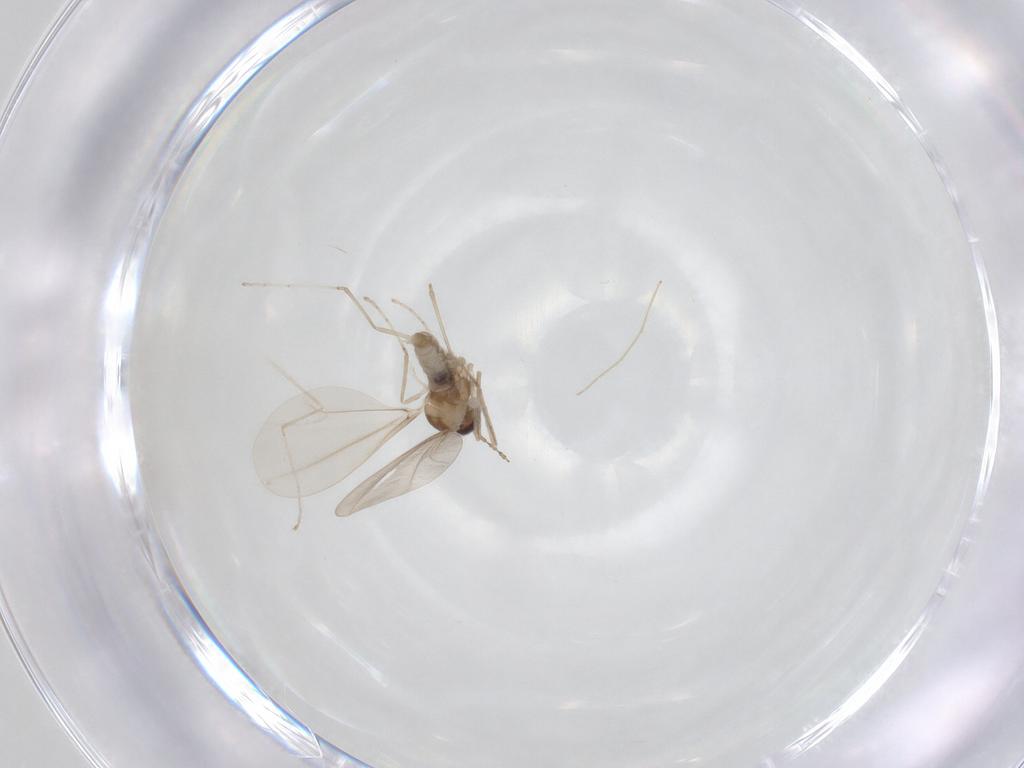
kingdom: Animalia
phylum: Arthropoda
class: Insecta
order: Diptera
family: Cecidomyiidae
